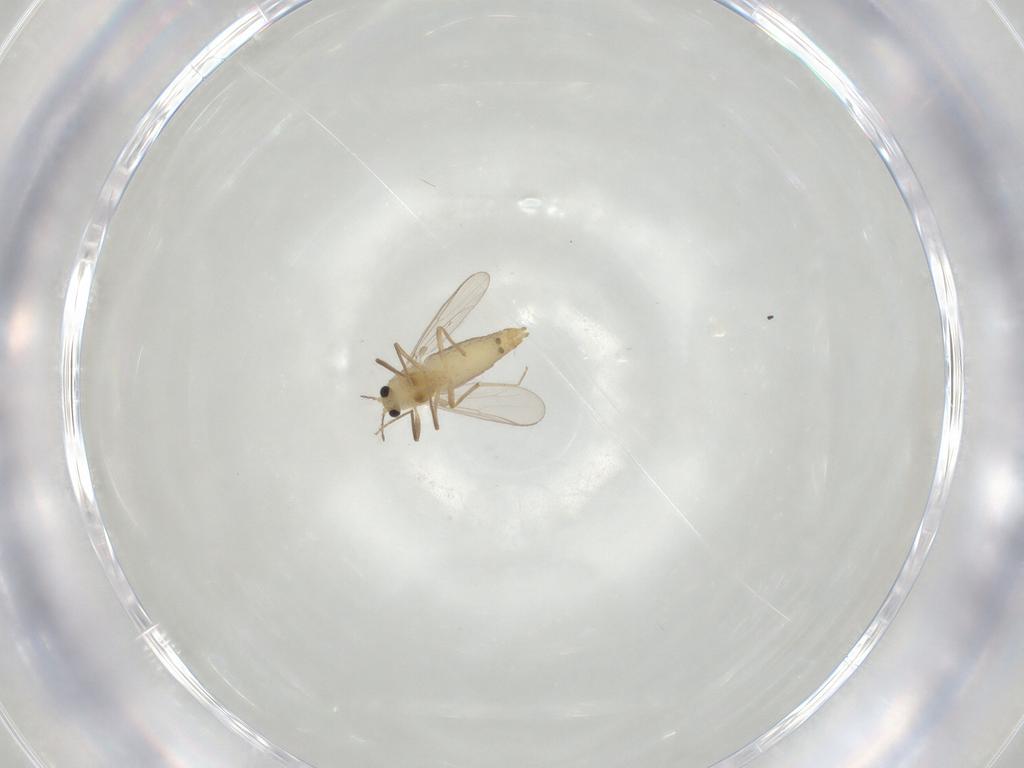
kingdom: Animalia
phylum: Arthropoda
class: Insecta
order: Diptera
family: Chironomidae
